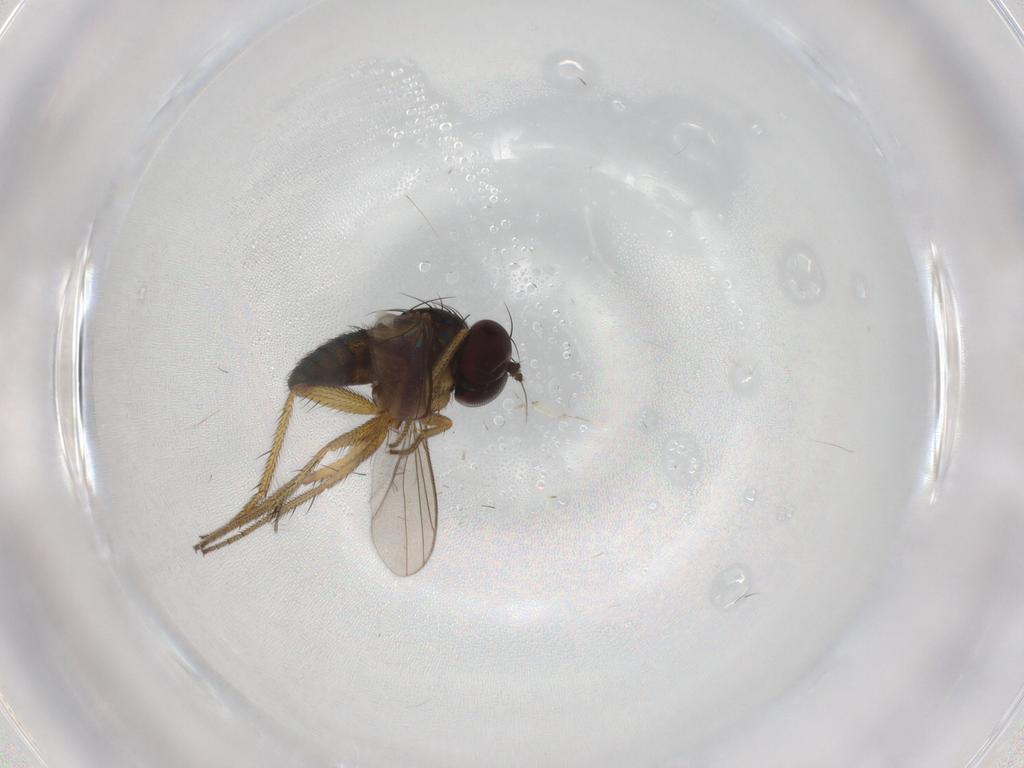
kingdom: Animalia
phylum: Arthropoda
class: Insecta
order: Diptera
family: Dolichopodidae
